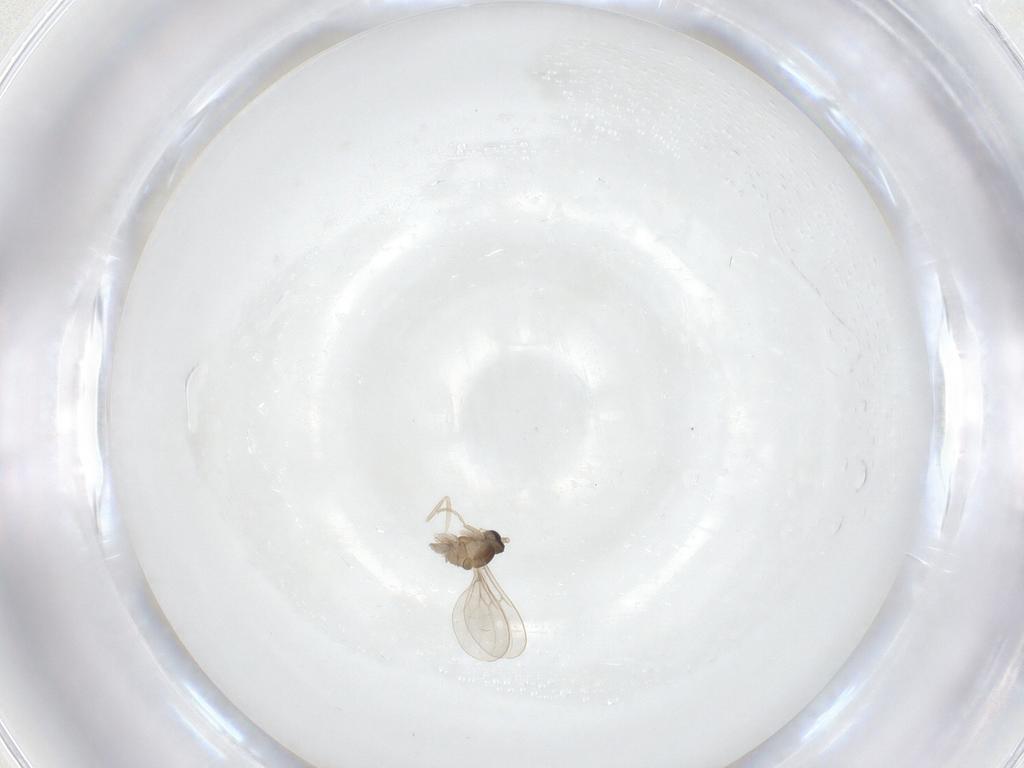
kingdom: Animalia
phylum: Arthropoda
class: Insecta
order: Diptera
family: Cecidomyiidae
